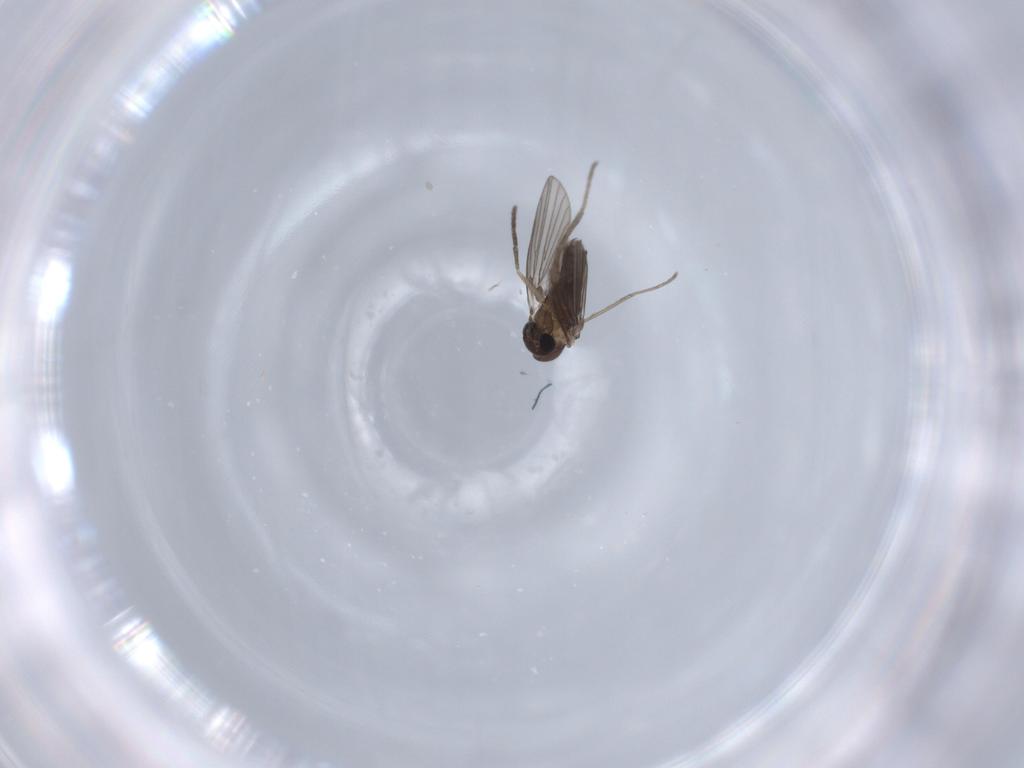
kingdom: Animalia
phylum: Arthropoda
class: Insecta
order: Diptera
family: Cecidomyiidae
